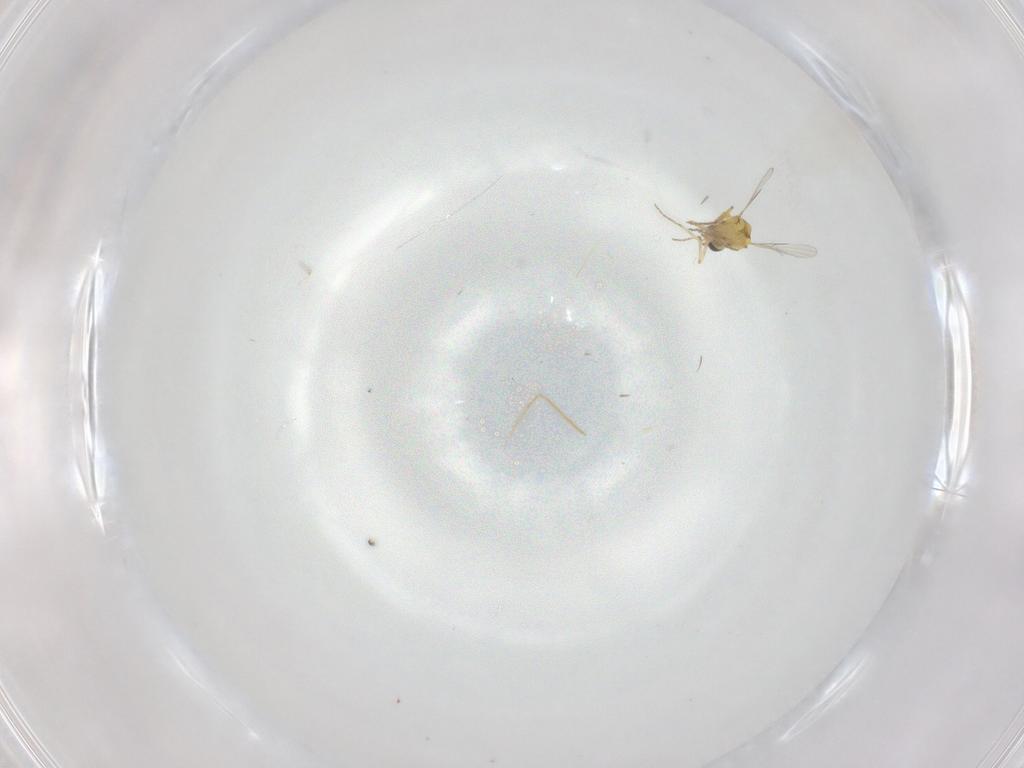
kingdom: Animalia
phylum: Arthropoda
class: Insecta
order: Diptera
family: Ceratopogonidae
